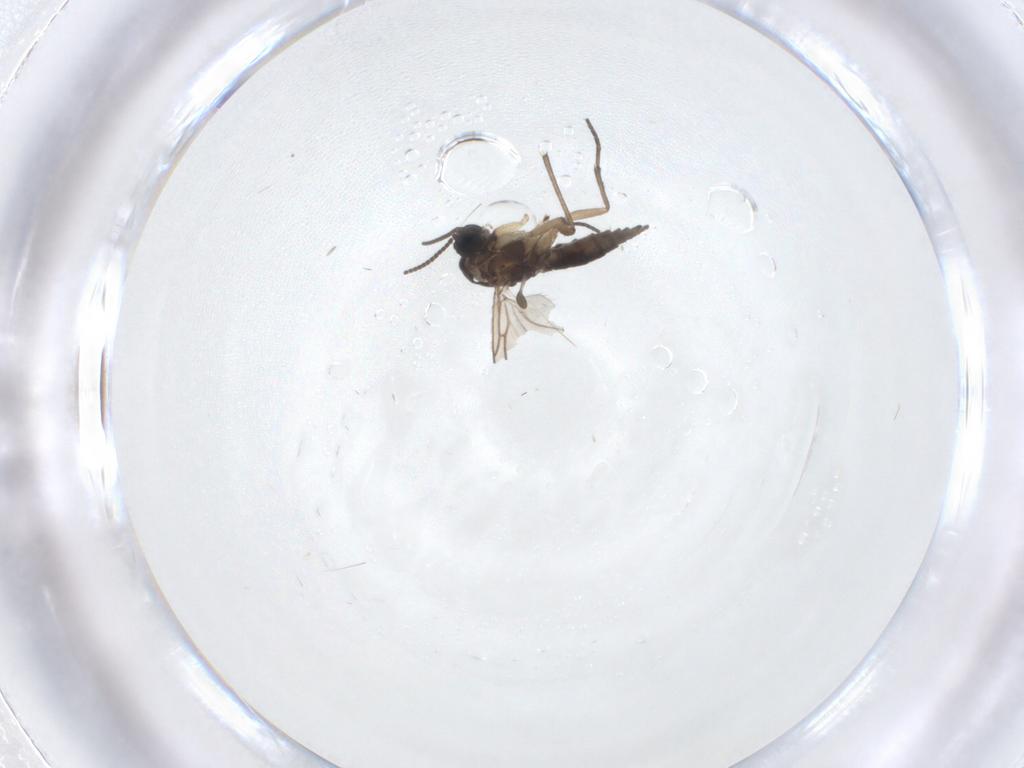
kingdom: Animalia
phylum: Arthropoda
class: Insecta
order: Diptera
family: Sciaridae
